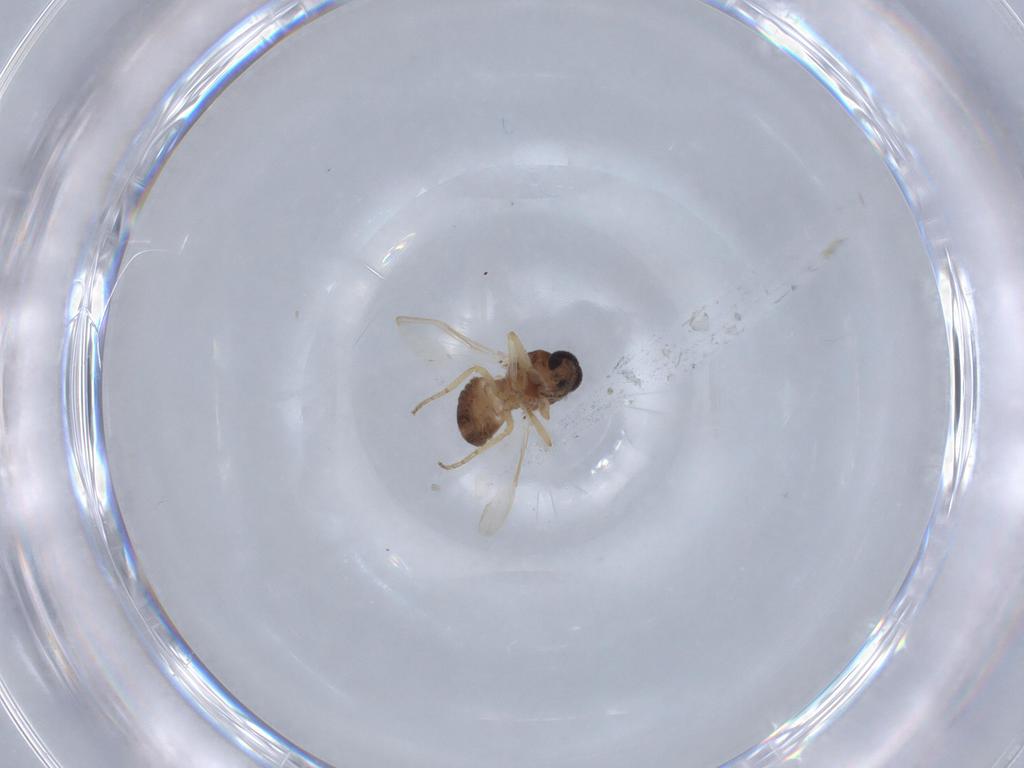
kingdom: Animalia
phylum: Arthropoda
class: Insecta
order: Diptera
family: Ceratopogonidae
